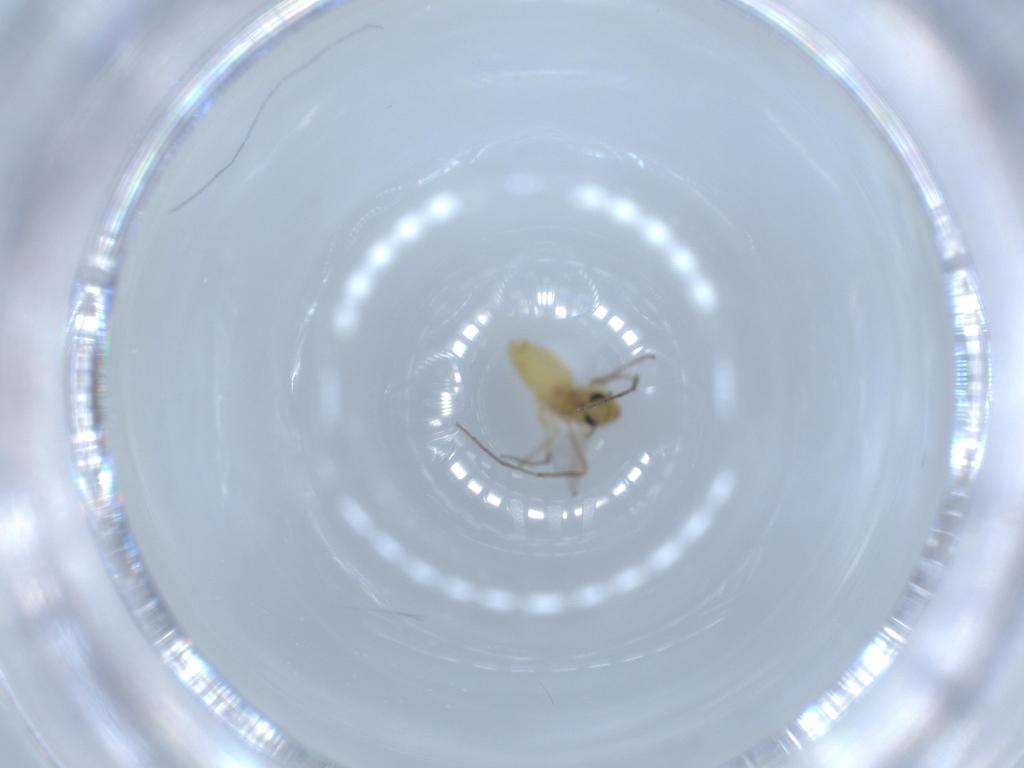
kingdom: Animalia
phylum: Arthropoda
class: Insecta
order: Diptera
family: Chironomidae
